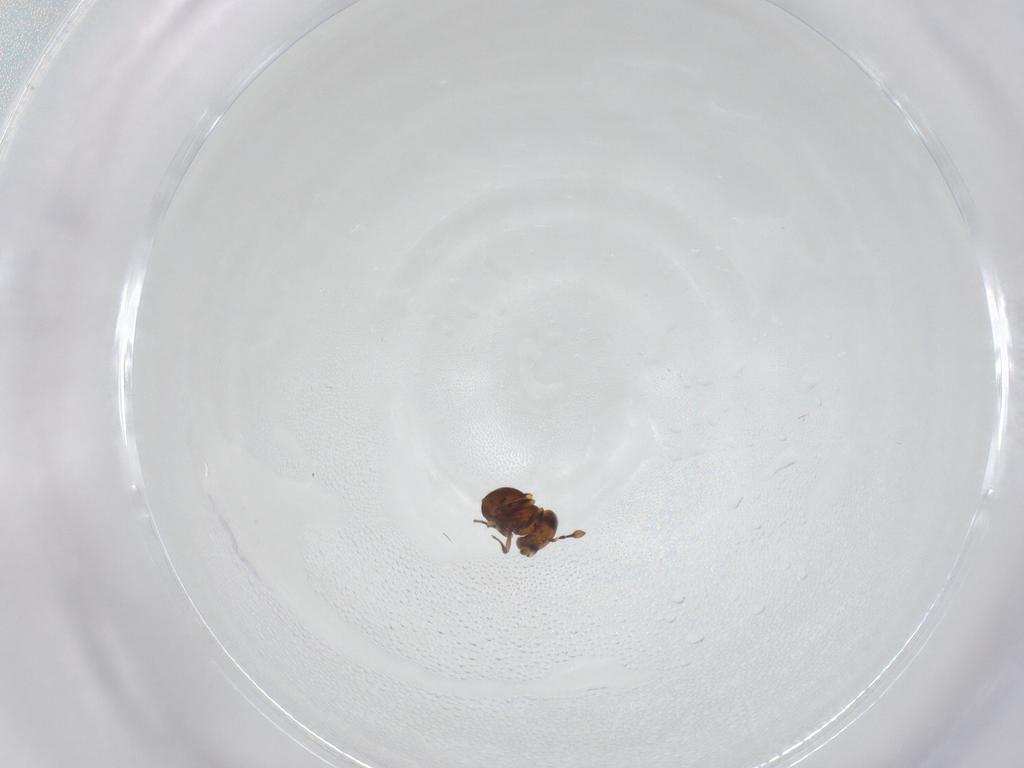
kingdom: Animalia
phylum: Arthropoda
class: Insecta
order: Hymenoptera
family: Scelionidae
